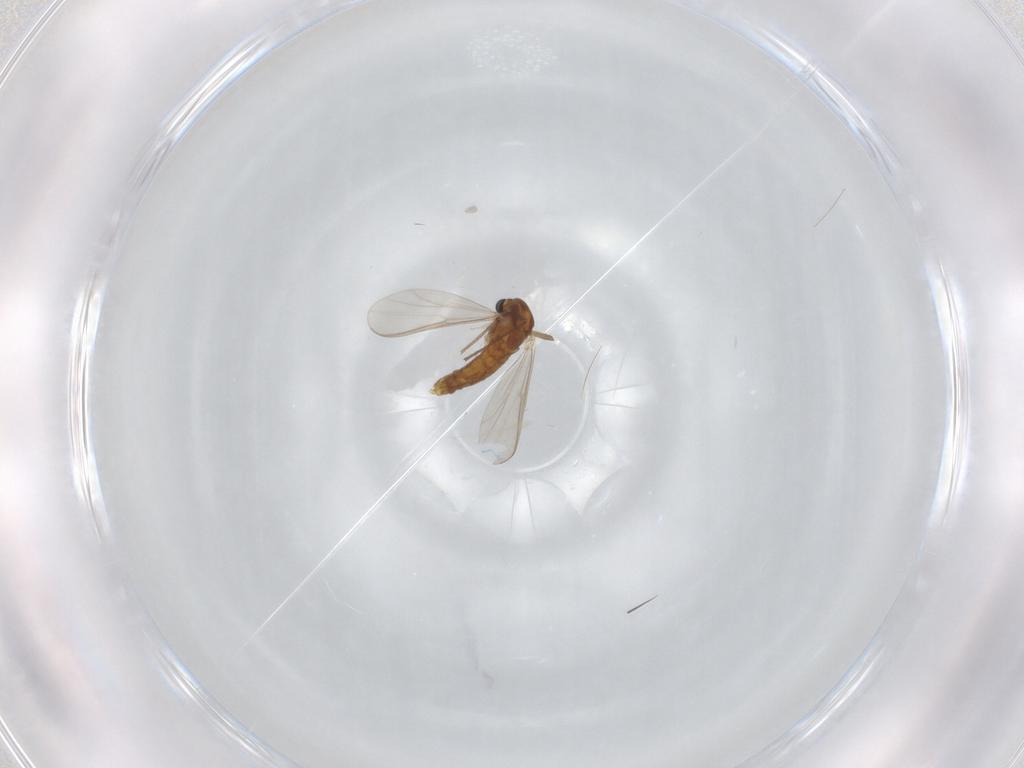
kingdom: Animalia
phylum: Arthropoda
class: Insecta
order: Diptera
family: Chironomidae
